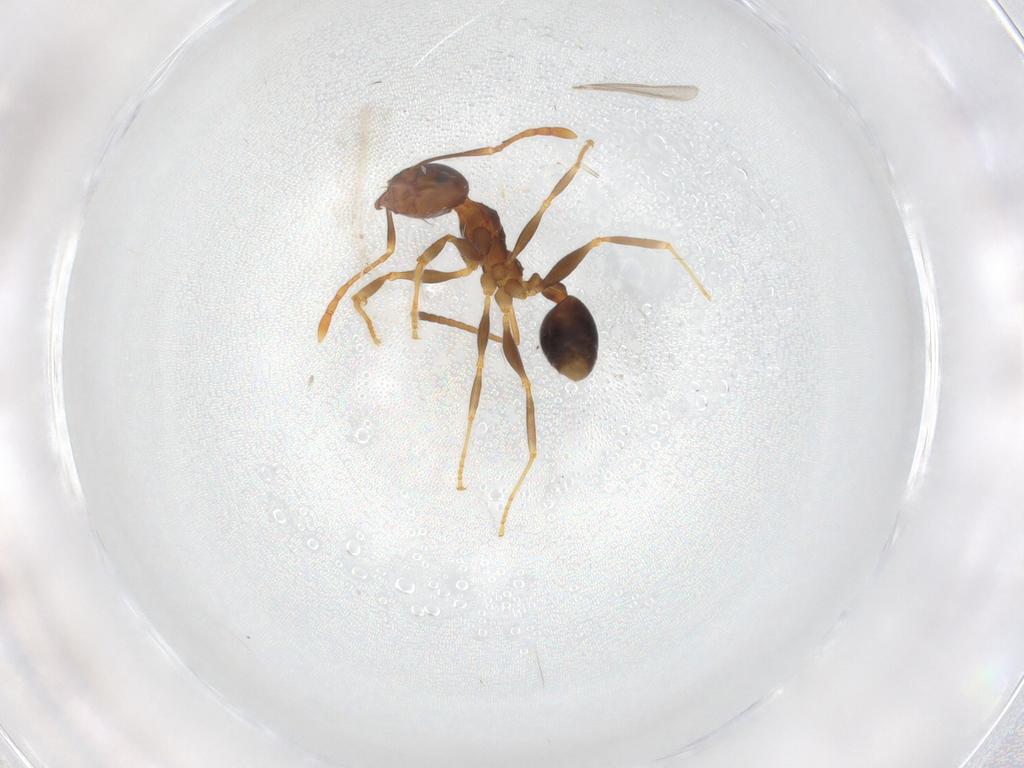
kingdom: Animalia
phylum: Arthropoda
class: Insecta
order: Hymenoptera
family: Formicidae
